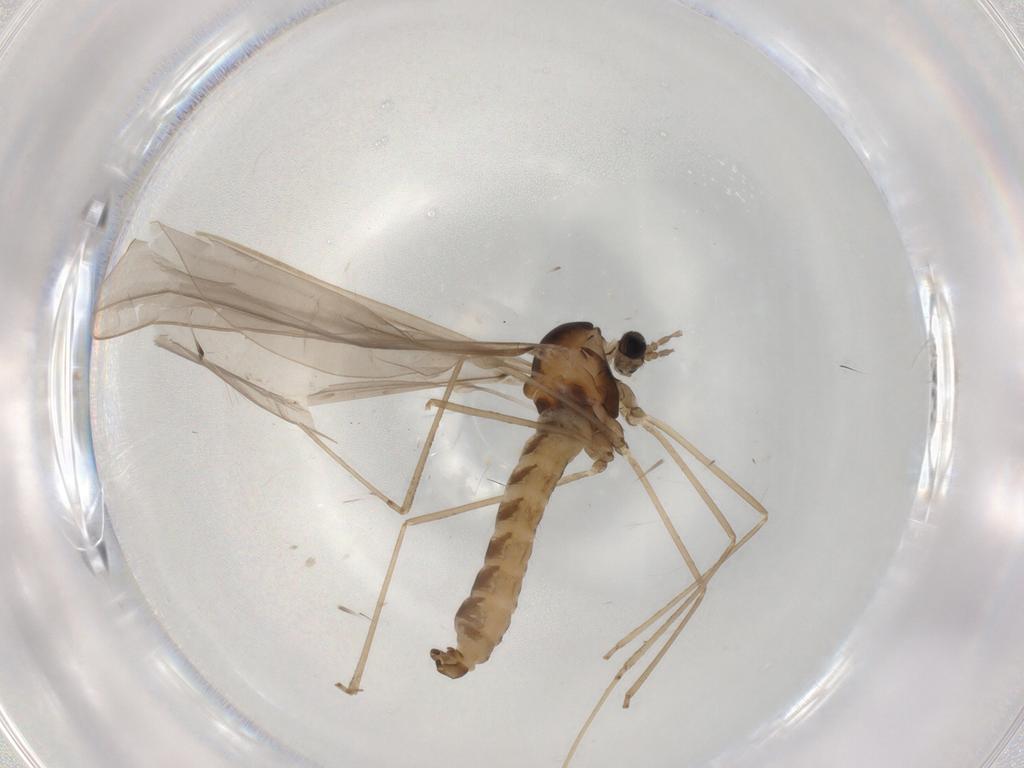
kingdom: Animalia
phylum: Arthropoda
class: Insecta
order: Diptera
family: Cecidomyiidae
